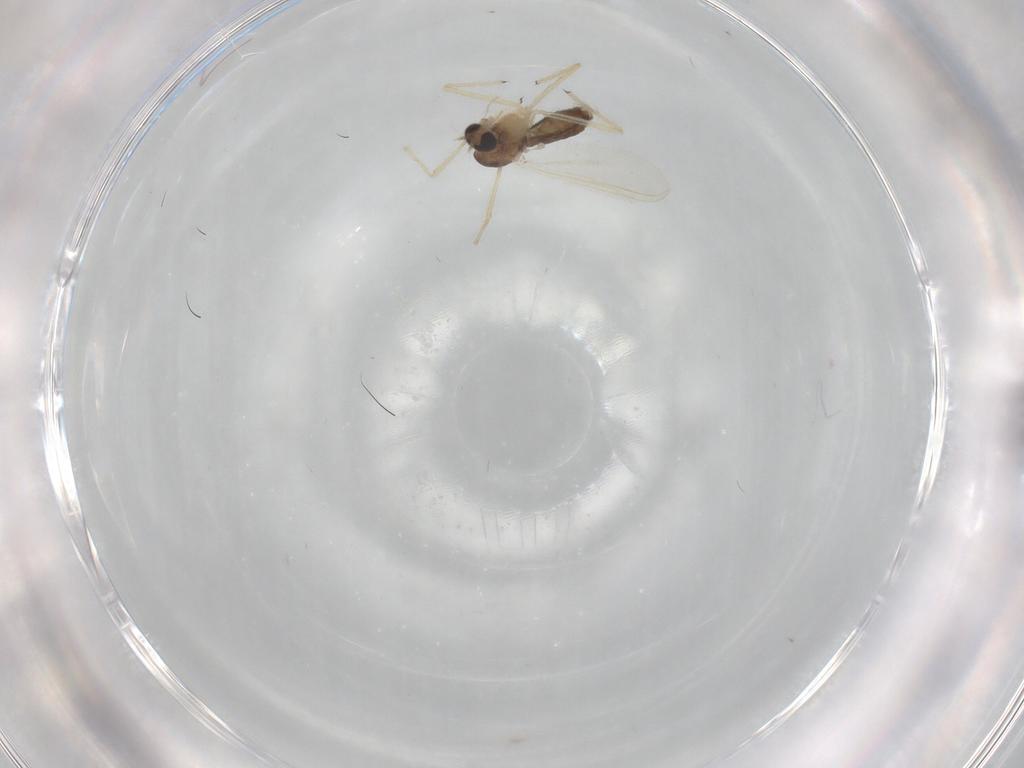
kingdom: Animalia
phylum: Arthropoda
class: Insecta
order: Diptera
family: Chironomidae
